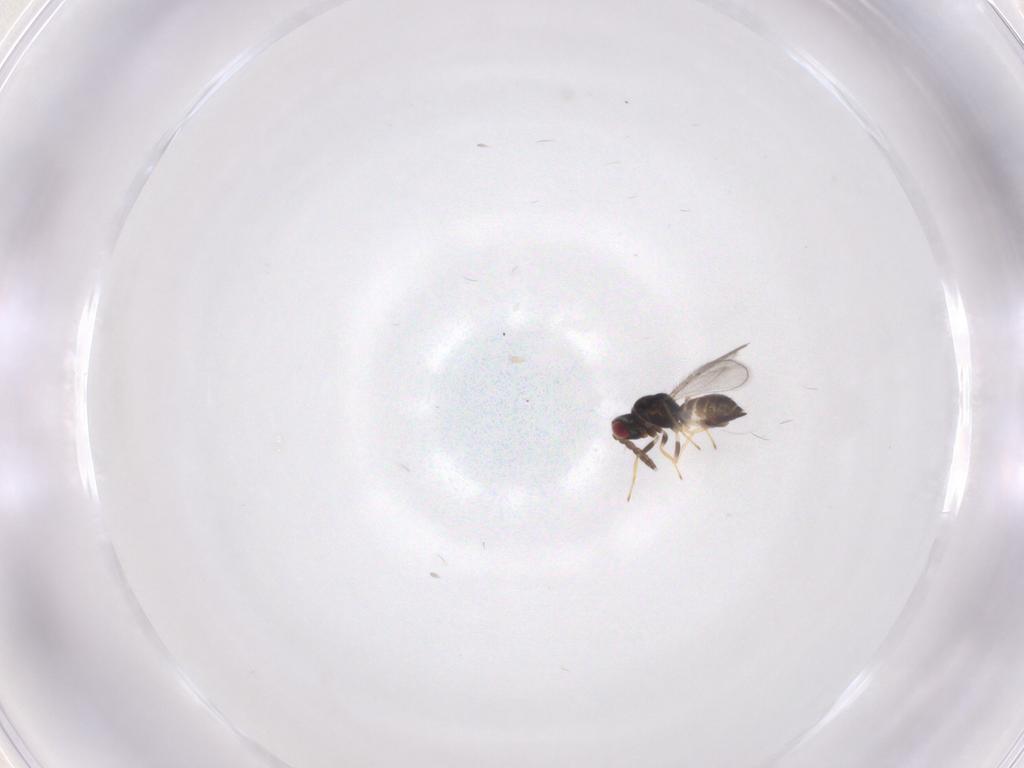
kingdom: Animalia
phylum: Arthropoda
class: Insecta
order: Hymenoptera
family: Eulophidae
